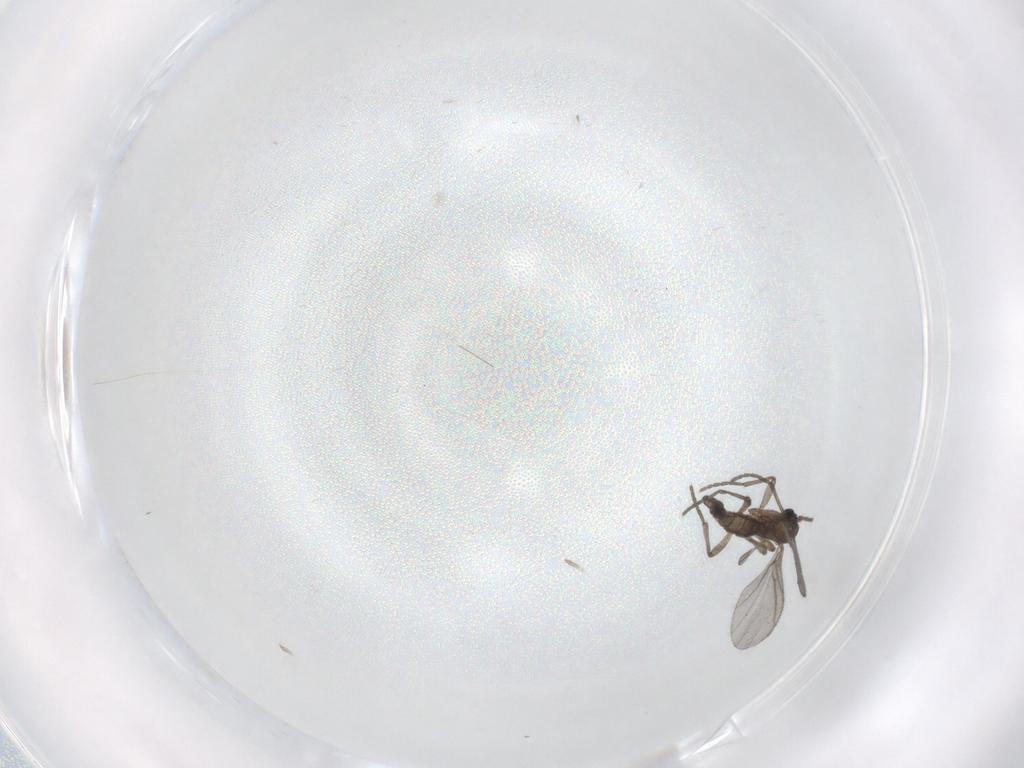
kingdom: Animalia
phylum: Arthropoda
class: Insecta
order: Diptera
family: Sciaridae
